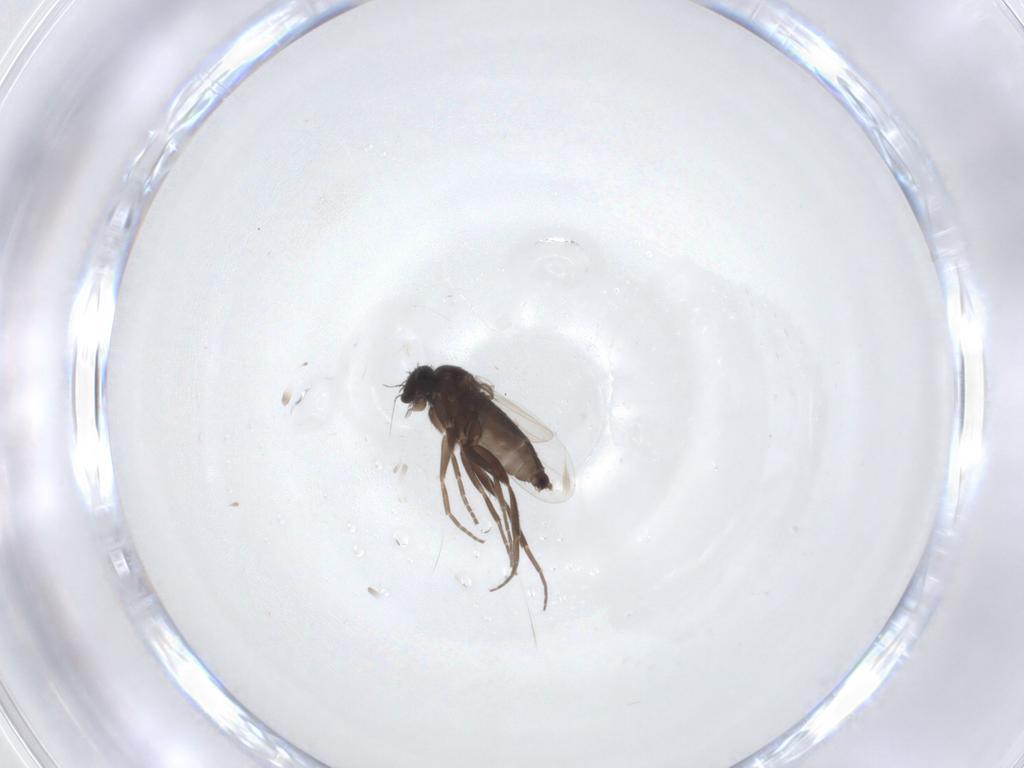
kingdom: Animalia
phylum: Arthropoda
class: Insecta
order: Diptera
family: Phoridae
